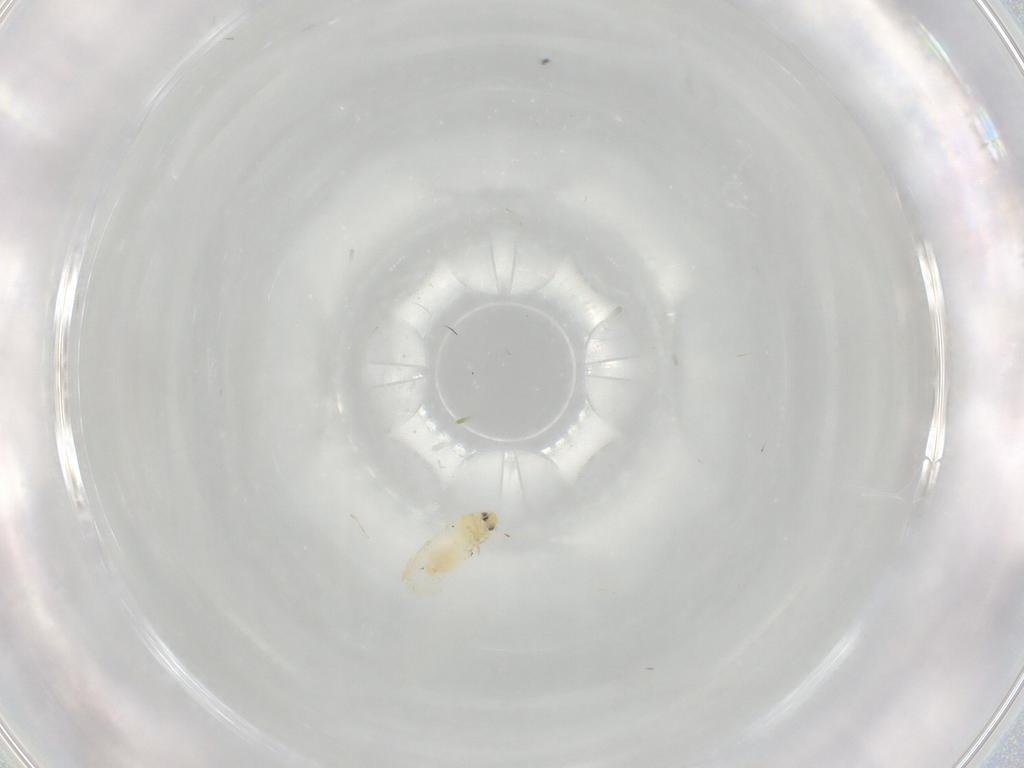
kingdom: Animalia
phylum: Arthropoda
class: Insecta
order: Hemiptera
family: Aleyrodidae
